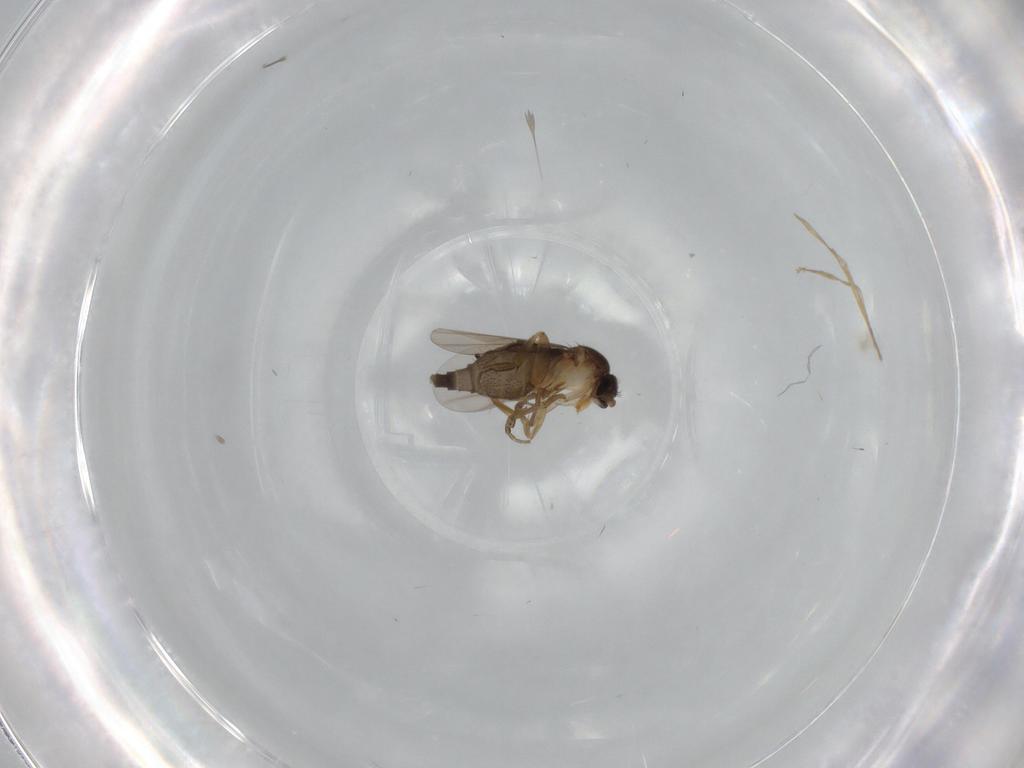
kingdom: Animalia
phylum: Arthropoda
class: Insecta
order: Diptera
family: Phoridae
